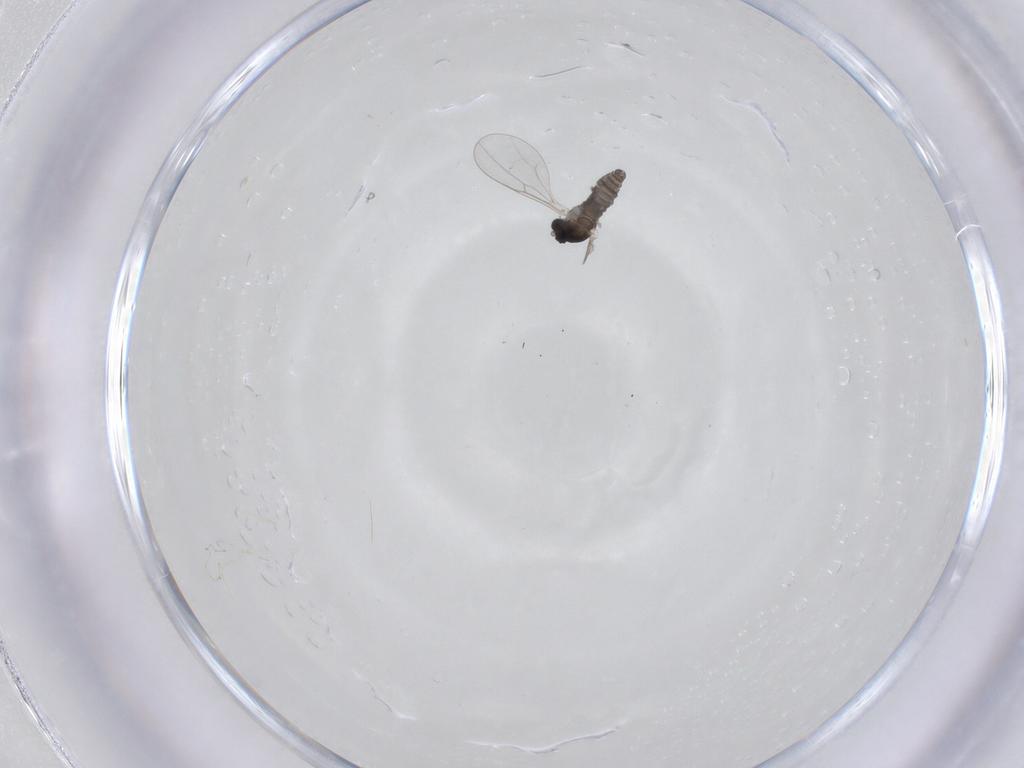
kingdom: Animalia
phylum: Arthropoda
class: Insecta
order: Diptera
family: Cecidomyiidae
